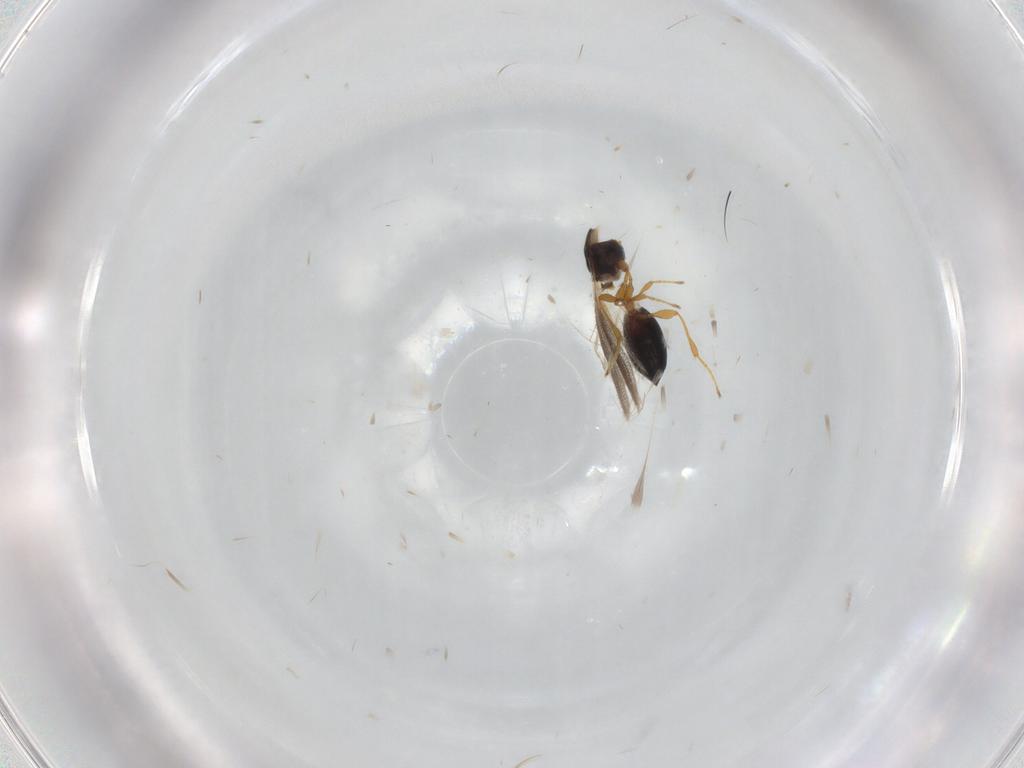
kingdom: Animalia
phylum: Arthropoda
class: Insecta
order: Hymenoptera
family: Diapriidae
